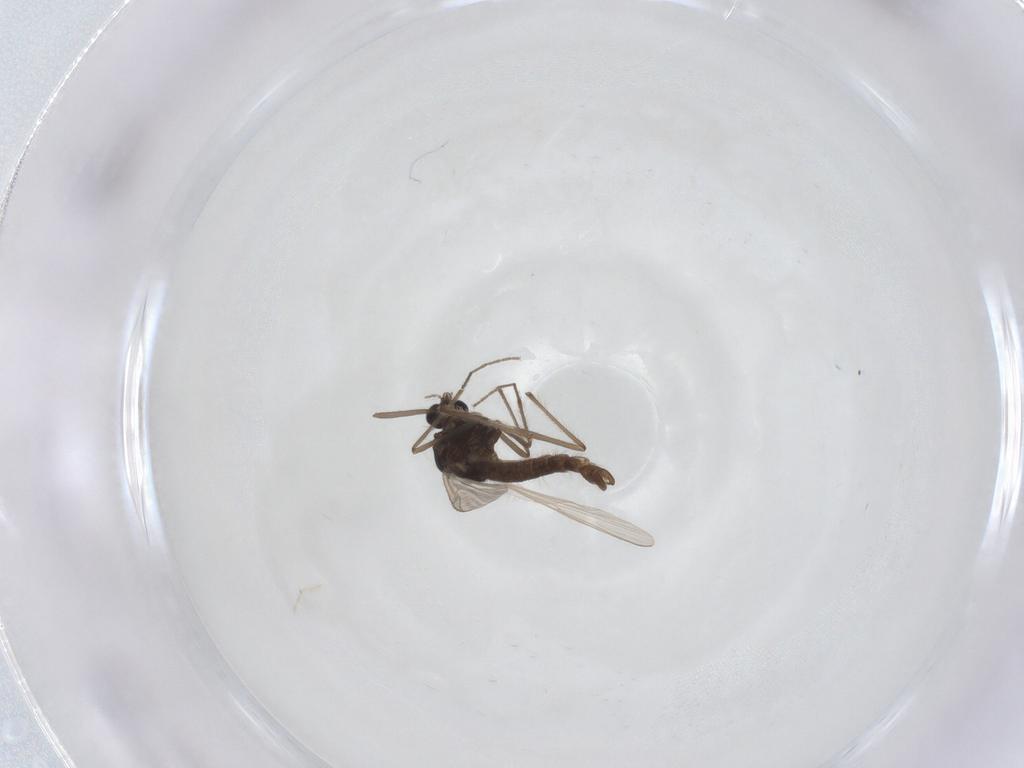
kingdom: Animalia
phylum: Arthropoda
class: Insecta
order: Diptera
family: Chironomidae
